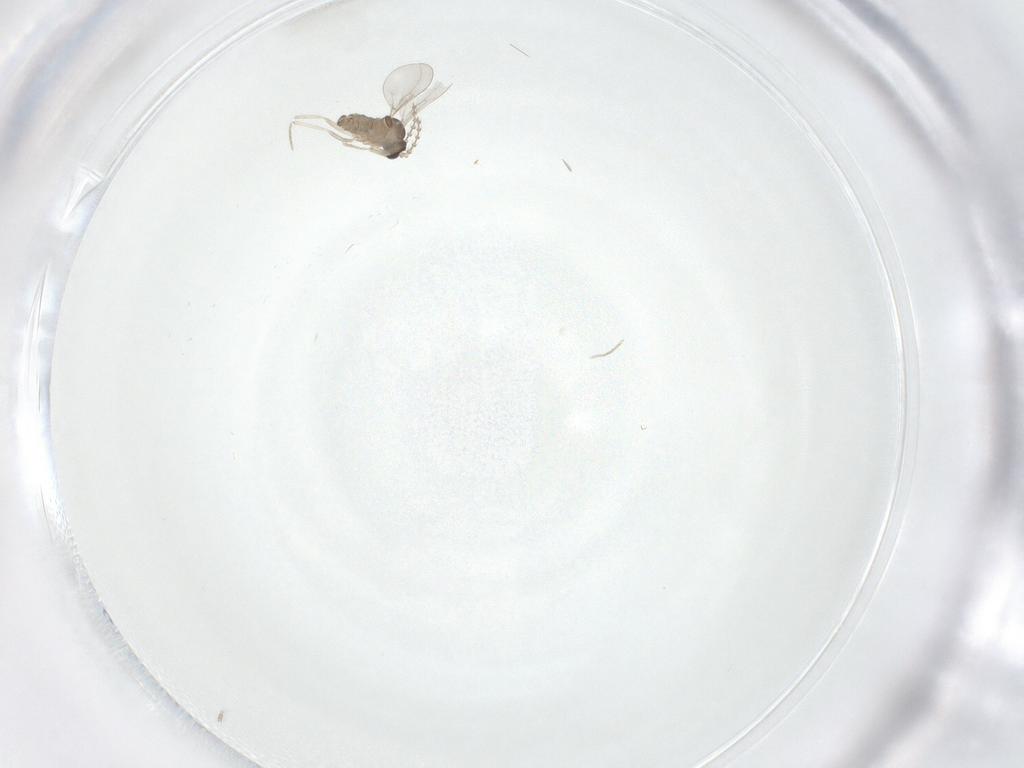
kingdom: Animalia
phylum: Arthropoda
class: Insecta
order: Diptera
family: Cecidomyiidae
